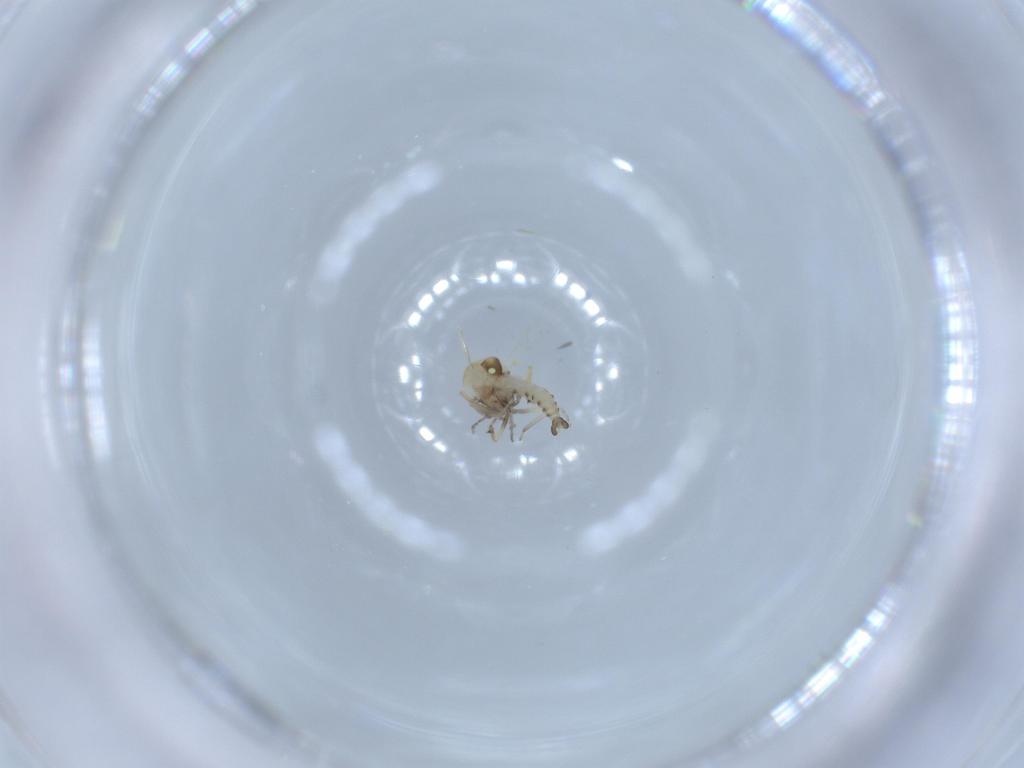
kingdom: Animalia
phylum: Arthropoda
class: Insecta
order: Diptera
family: Ceratopogonidae
